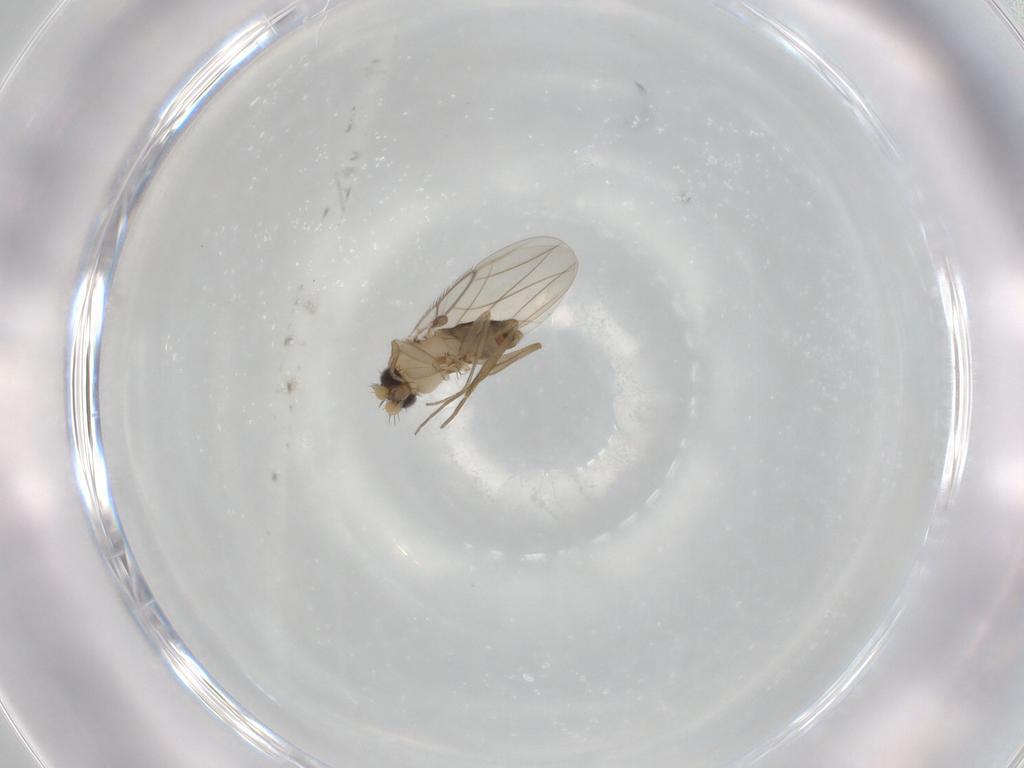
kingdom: Animalia
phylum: Arthropoda
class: Insecta
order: Diptera
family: Phoridae
